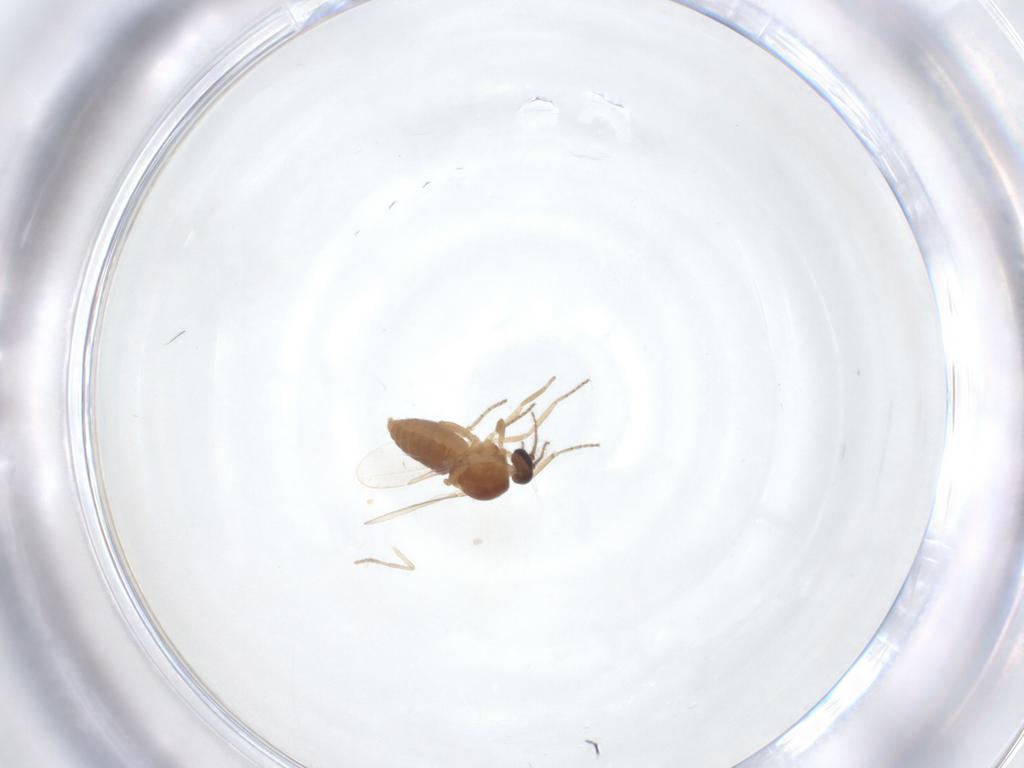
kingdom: Animalia
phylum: Arthropoda
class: Insecta
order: Diptera
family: Ceratopogonidae
